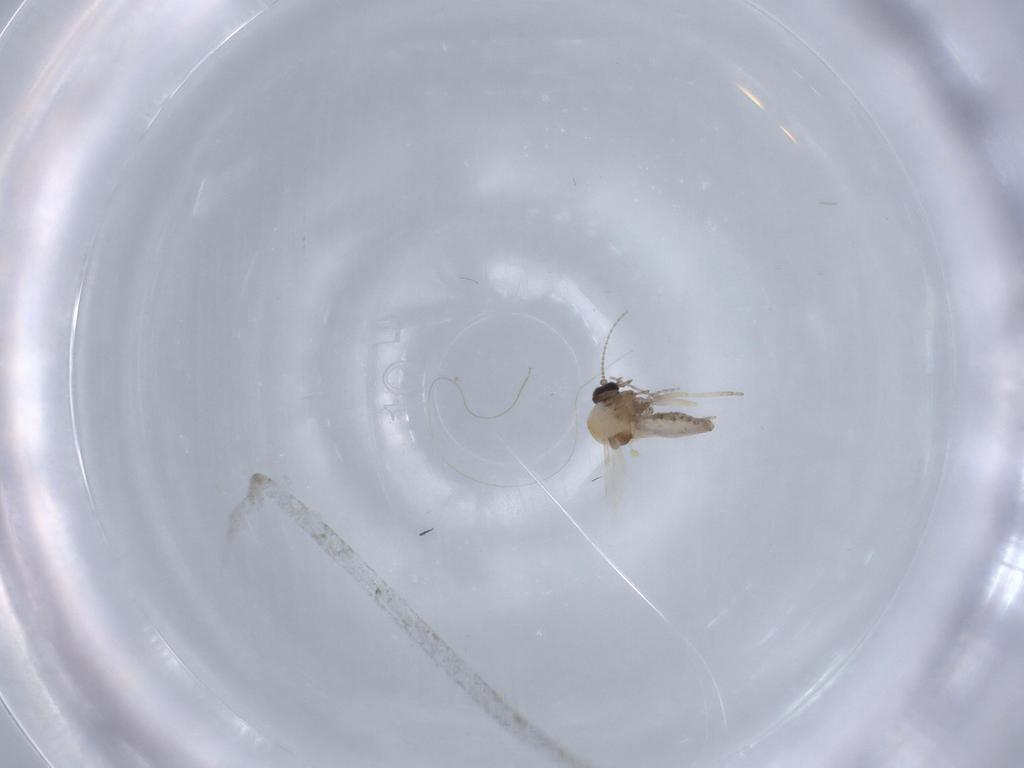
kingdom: Animalia
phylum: Arthropoda
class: Insecta
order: Diptera
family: Ceratopogonidae
